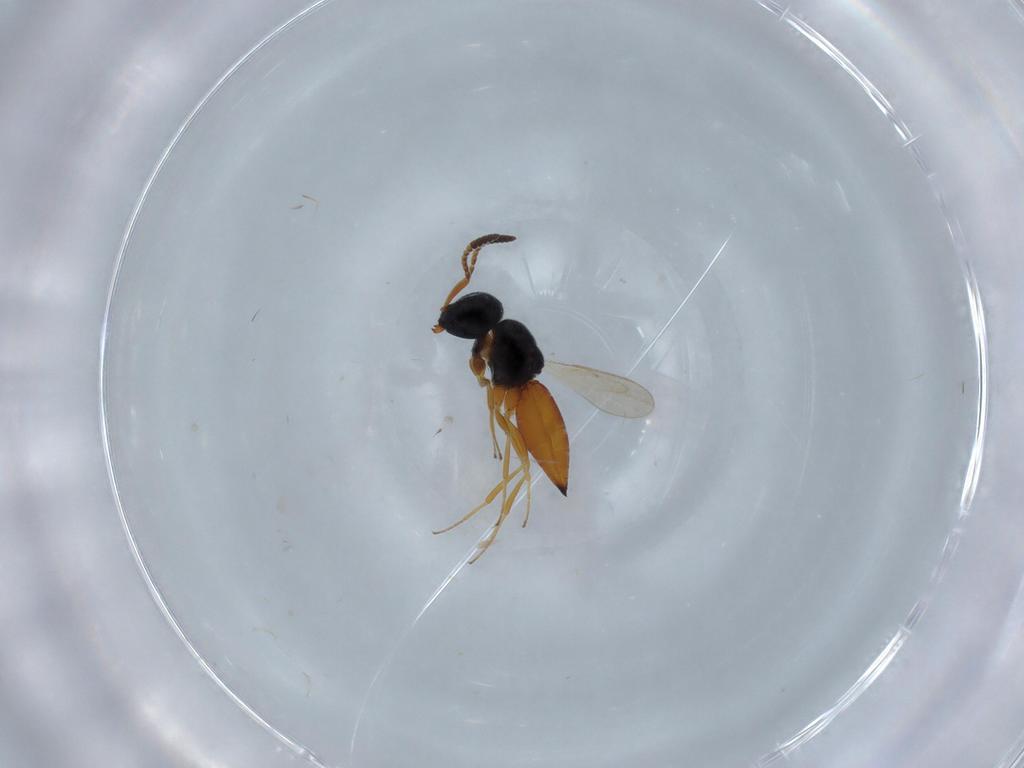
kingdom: Animalia
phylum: Arthropoda
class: Insecta
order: Hymenoptera
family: Scelionidae
